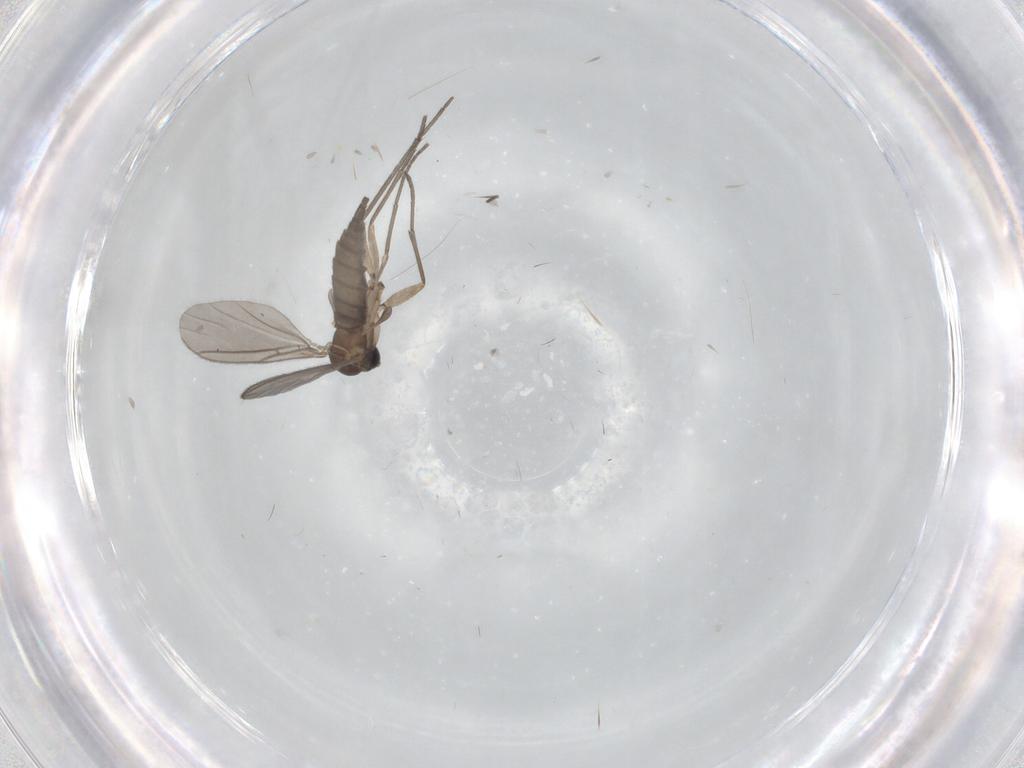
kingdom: Animalia
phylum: Arthropoda
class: Insecta
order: Diptera
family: Sciaridae
